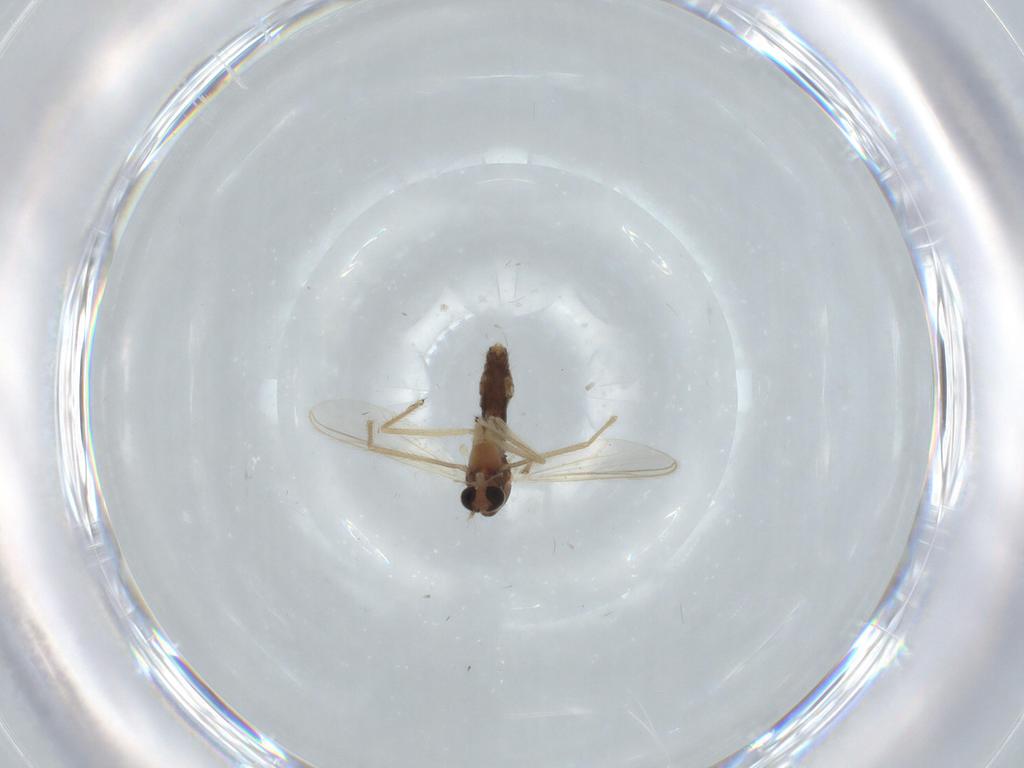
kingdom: Animalia
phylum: Arthropoda
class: Insecta
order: Diptera
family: Chironomidae
